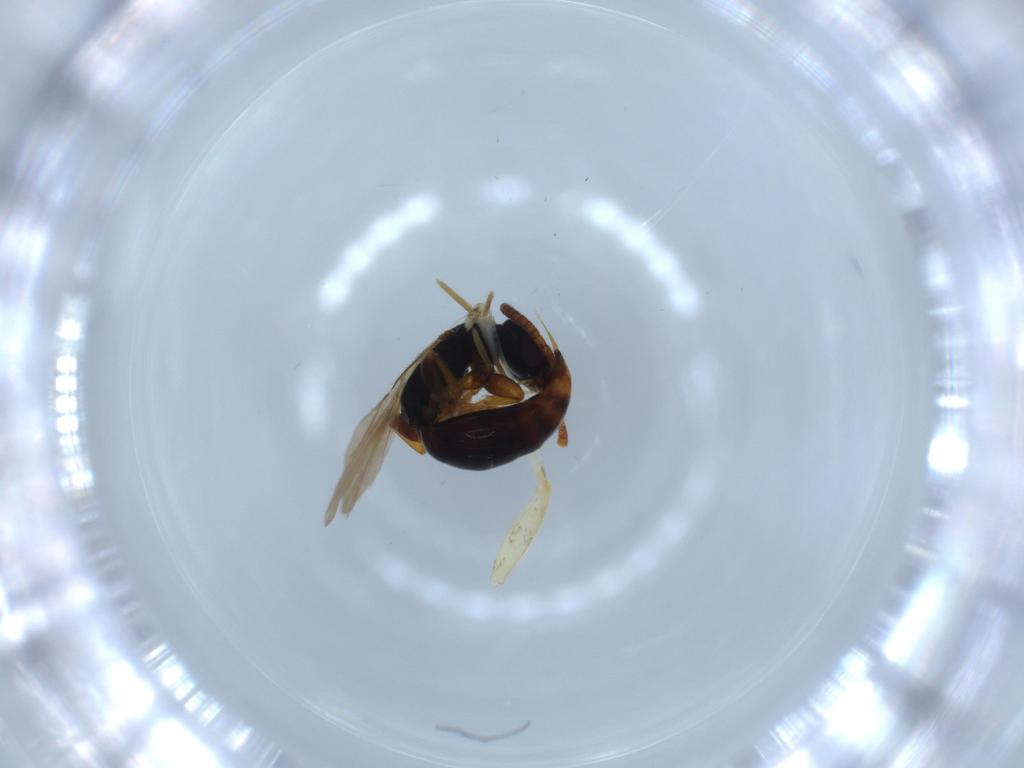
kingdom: Animalia
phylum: Arthropoda
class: Insecta
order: Hymenoptera
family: Bethylidae
